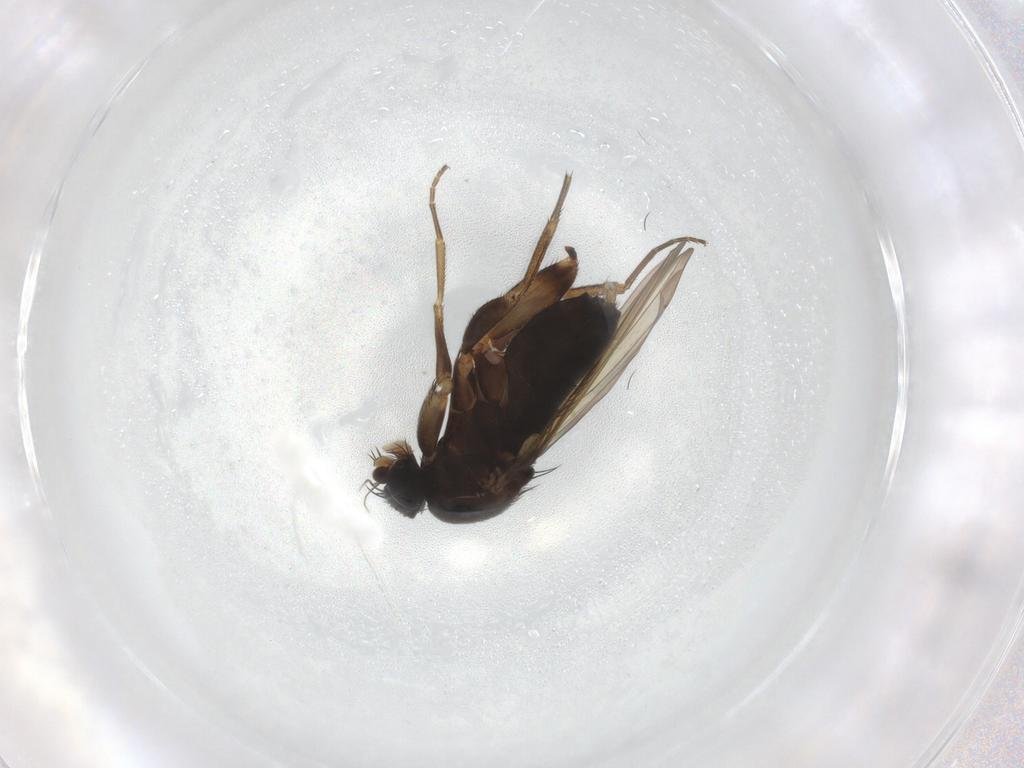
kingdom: Animalia
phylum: Arthropoda
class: Insecta
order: Diptera
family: Phoridae
